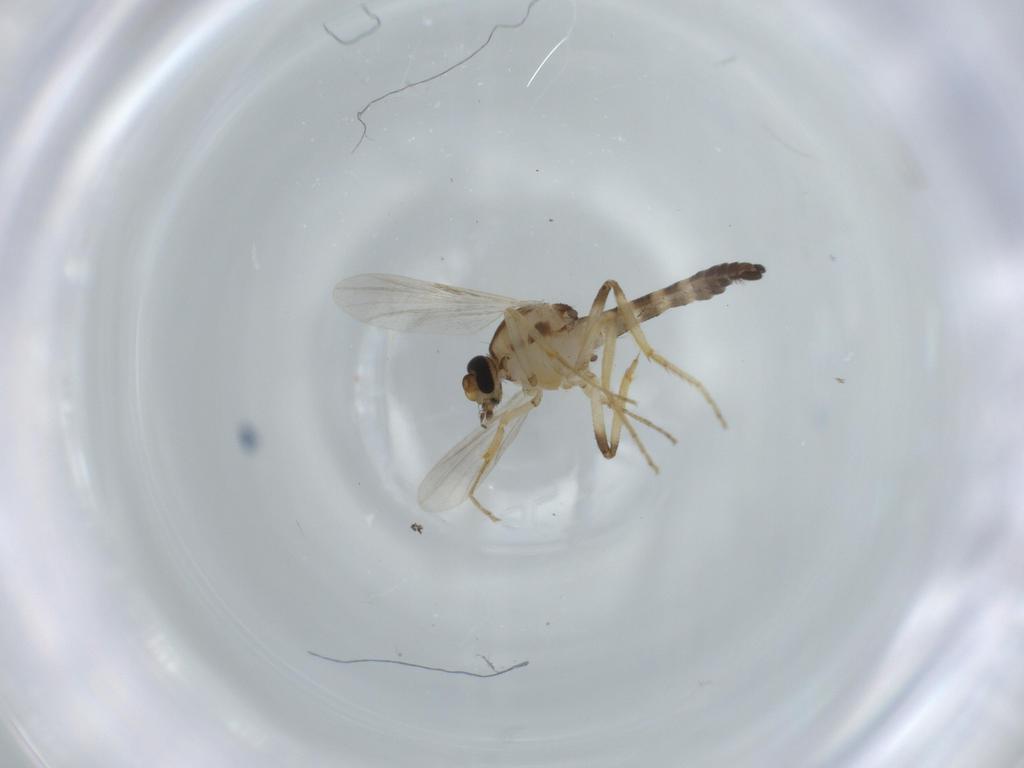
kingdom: Animalia
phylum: Arthropoda
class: Insecta
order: Diptera
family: Ceratopogonidae
